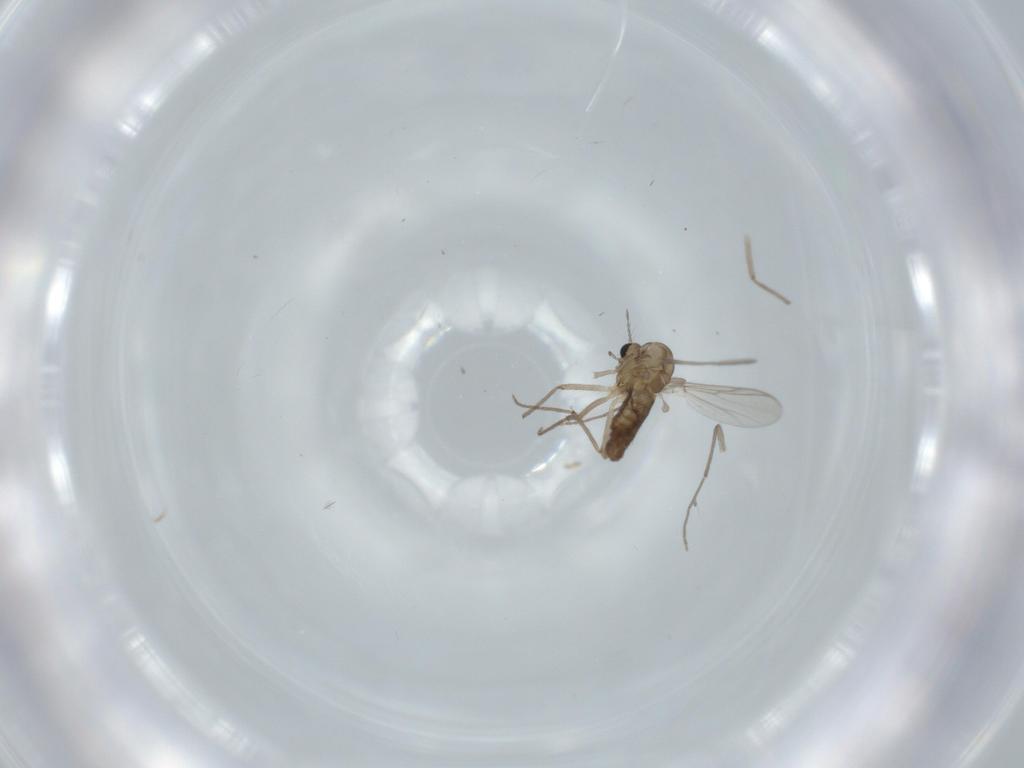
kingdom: Animalia
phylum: Arthropoda
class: Insecta
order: Diptera
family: Chironomidae
